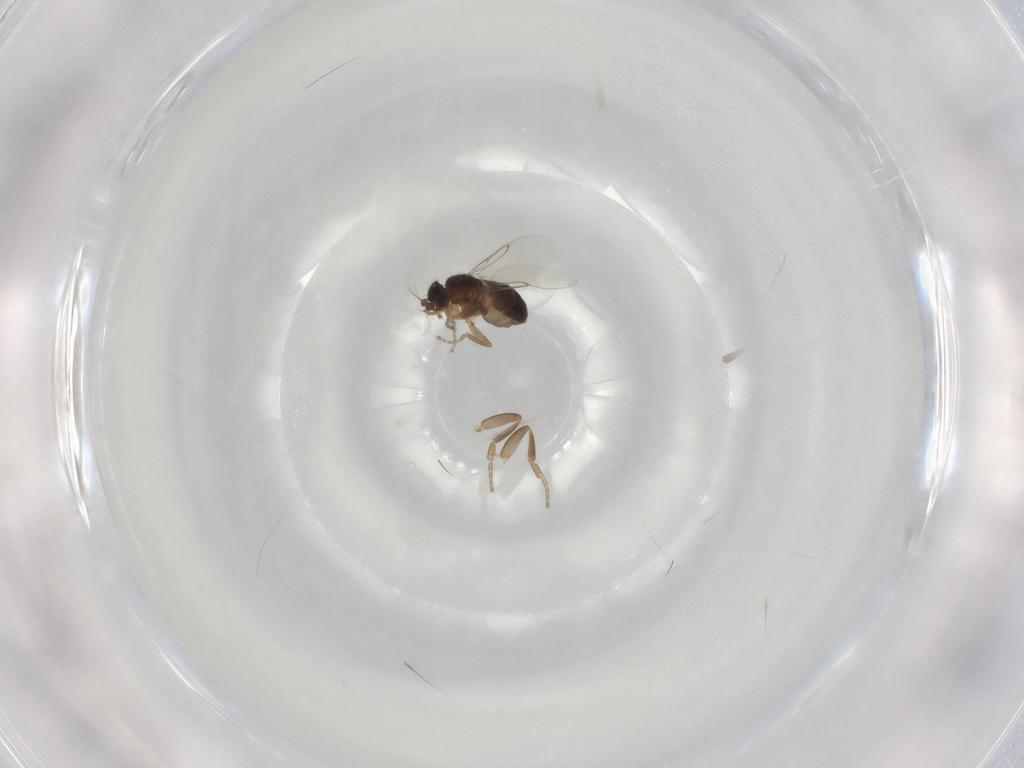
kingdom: Animalia
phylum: Arthropoda
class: Insecta
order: Diptera
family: Phoridae
